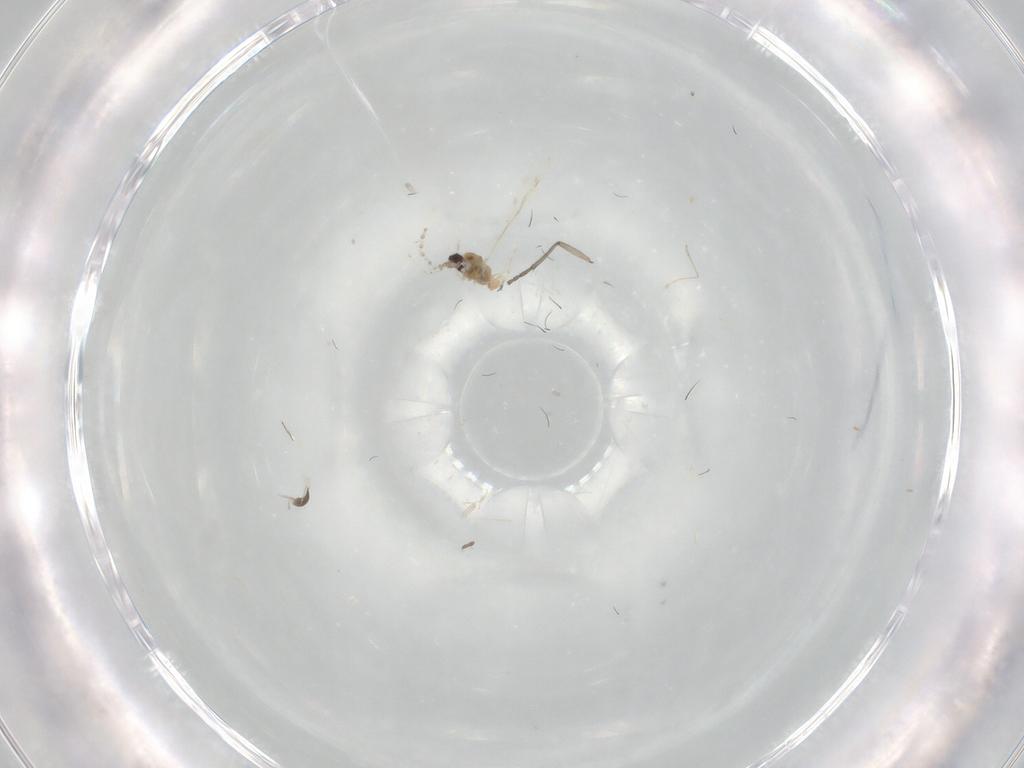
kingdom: Animalia
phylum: Arthropoda
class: Insecta
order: Diptera
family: Cecidomyiidae
